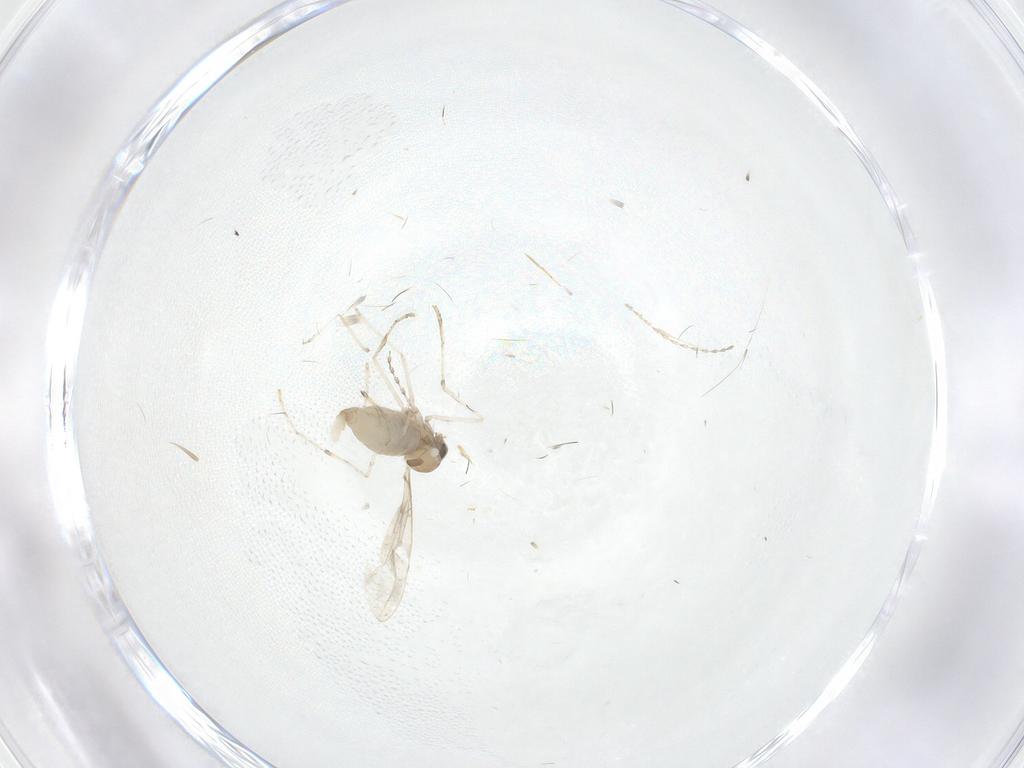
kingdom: Animalia
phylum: Arthropoda
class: Insecta
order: Diptera
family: Cecidomyiidae
